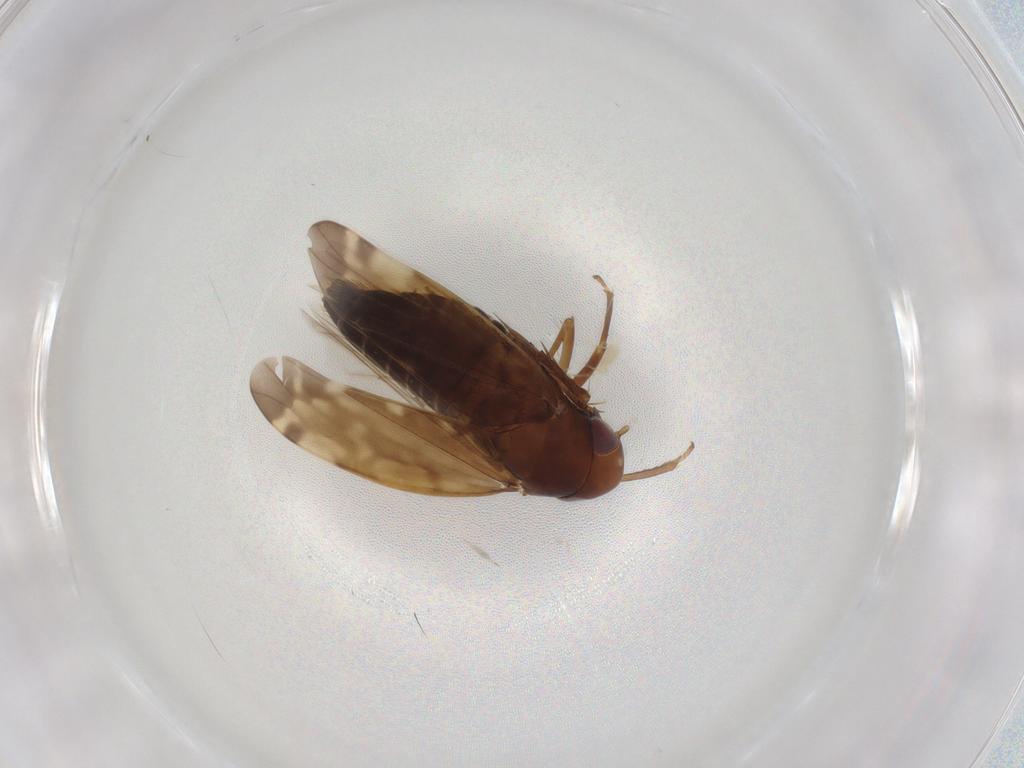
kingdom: Animalia
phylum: Arthropoda
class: Insecta
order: Hemiptera
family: Cicadellidae
